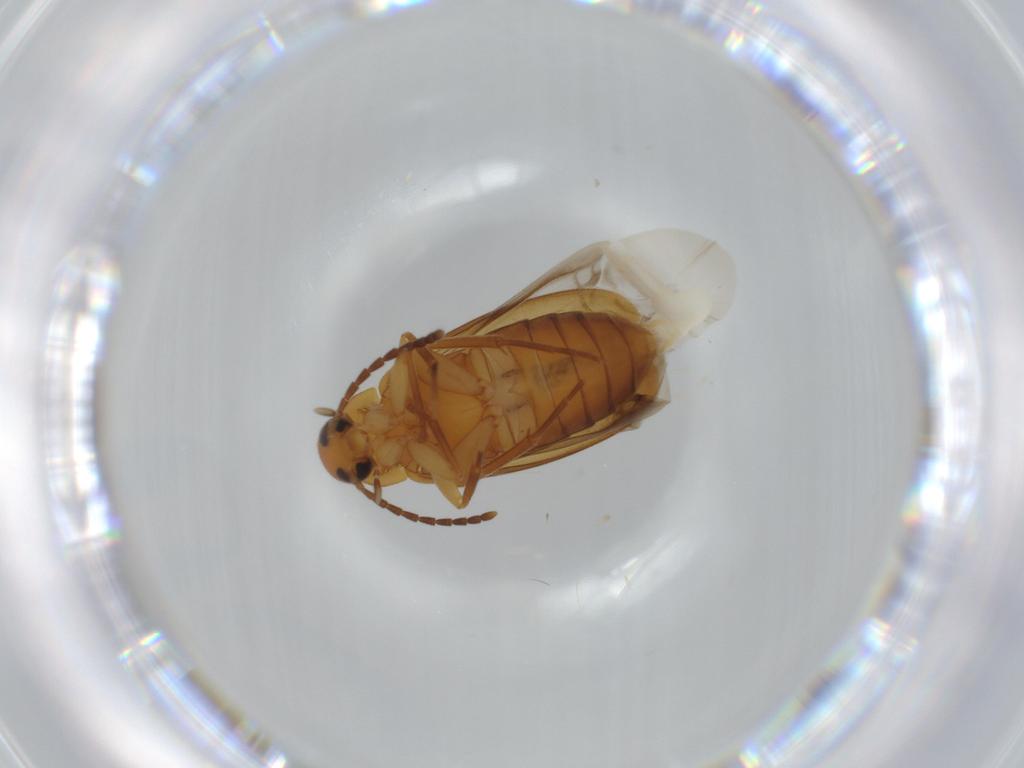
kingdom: Animalia
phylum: Arthropoda
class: Insecta
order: Coleoptera
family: Scraptiidae
